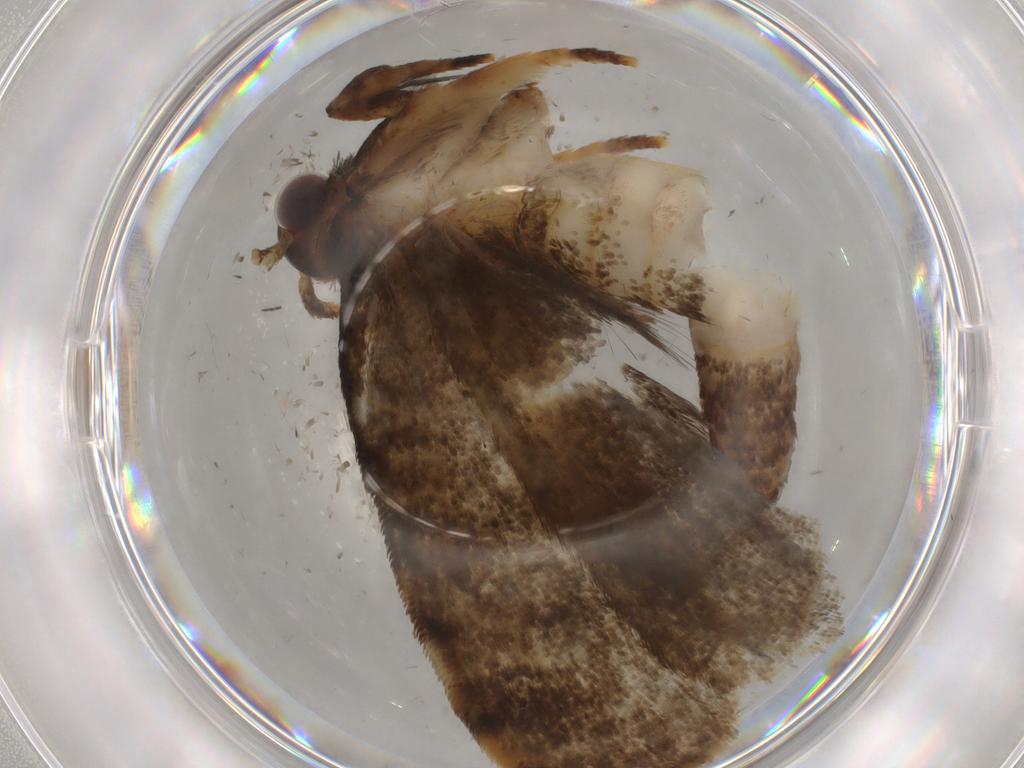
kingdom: Animalia
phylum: Arthropoda
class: Insecta
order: Lepidoptera
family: Tineidae
